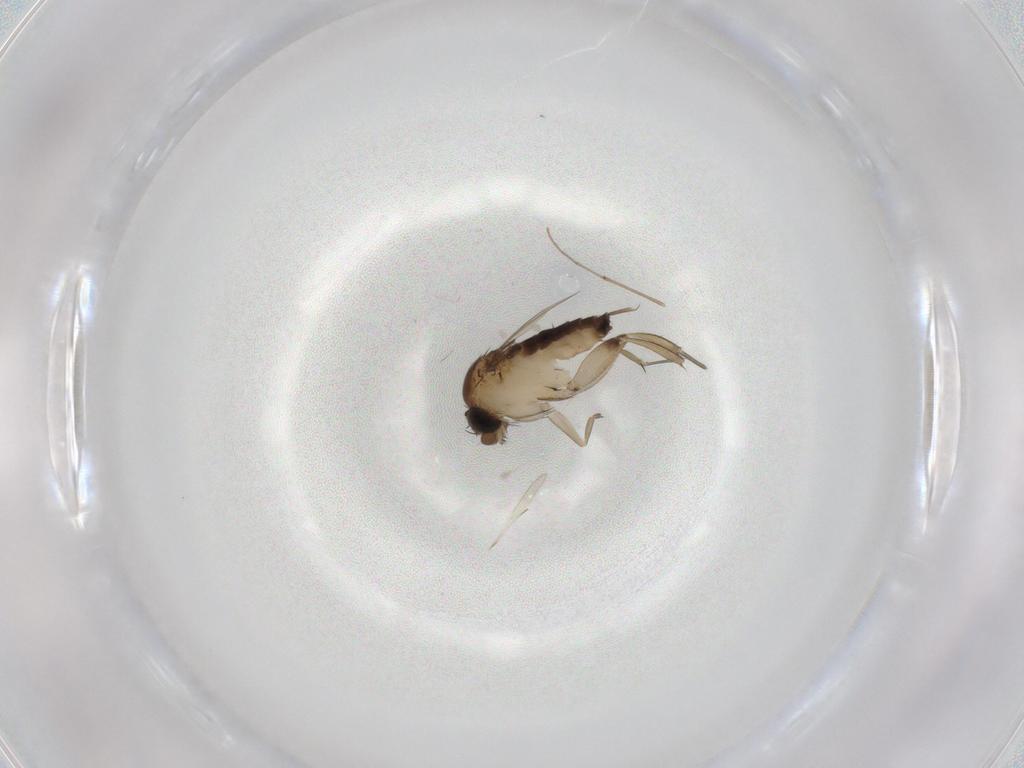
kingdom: Animalia
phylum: Arthropoda
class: Insecta
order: Diptera
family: Phoridae
